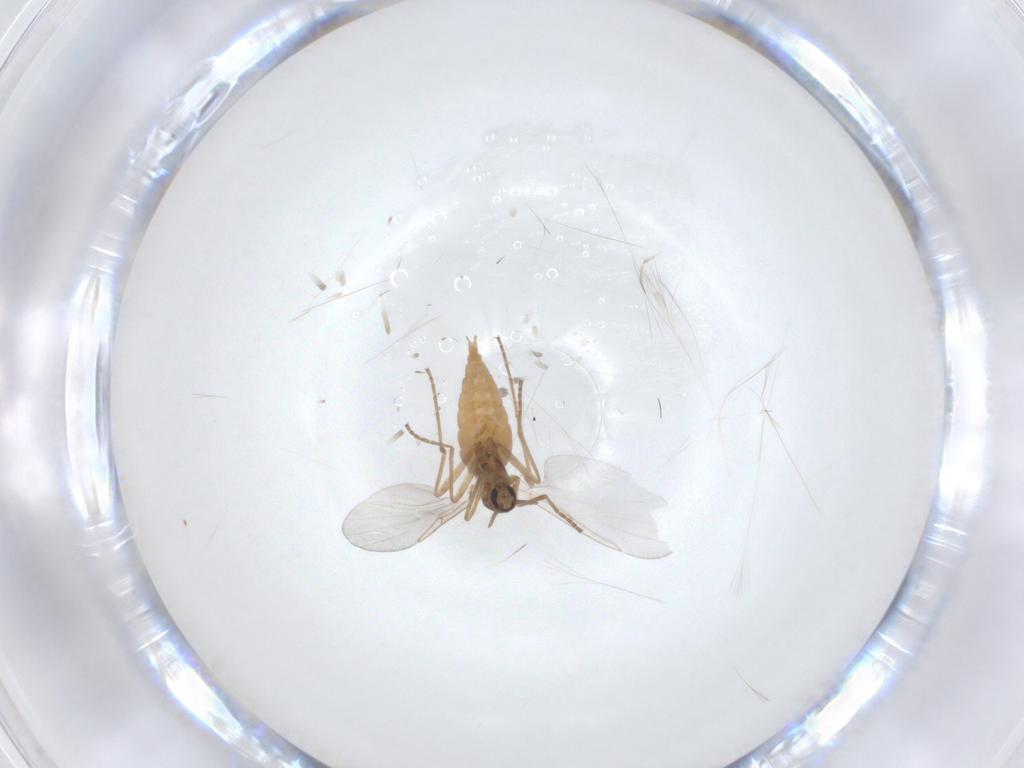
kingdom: Animalia
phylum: Arthropoda
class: Insecta
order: Diptera
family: Cecidomyiidae
